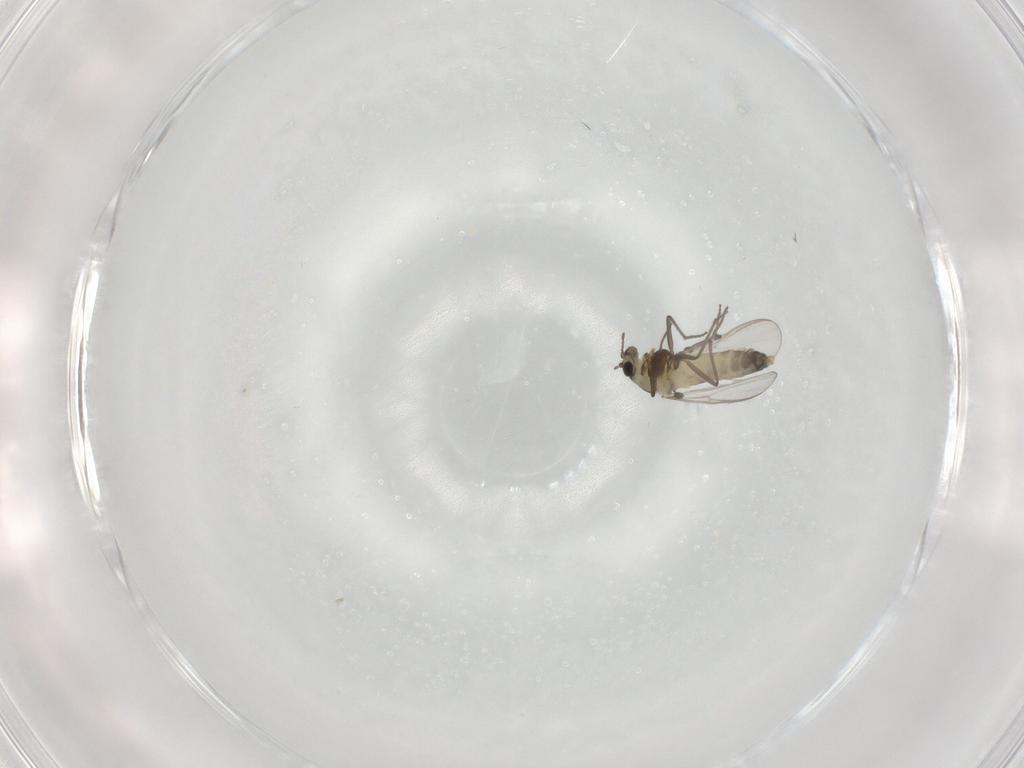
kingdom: Animalia
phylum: Arthropoda
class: Insecta
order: Diptera
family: Chironomidae
